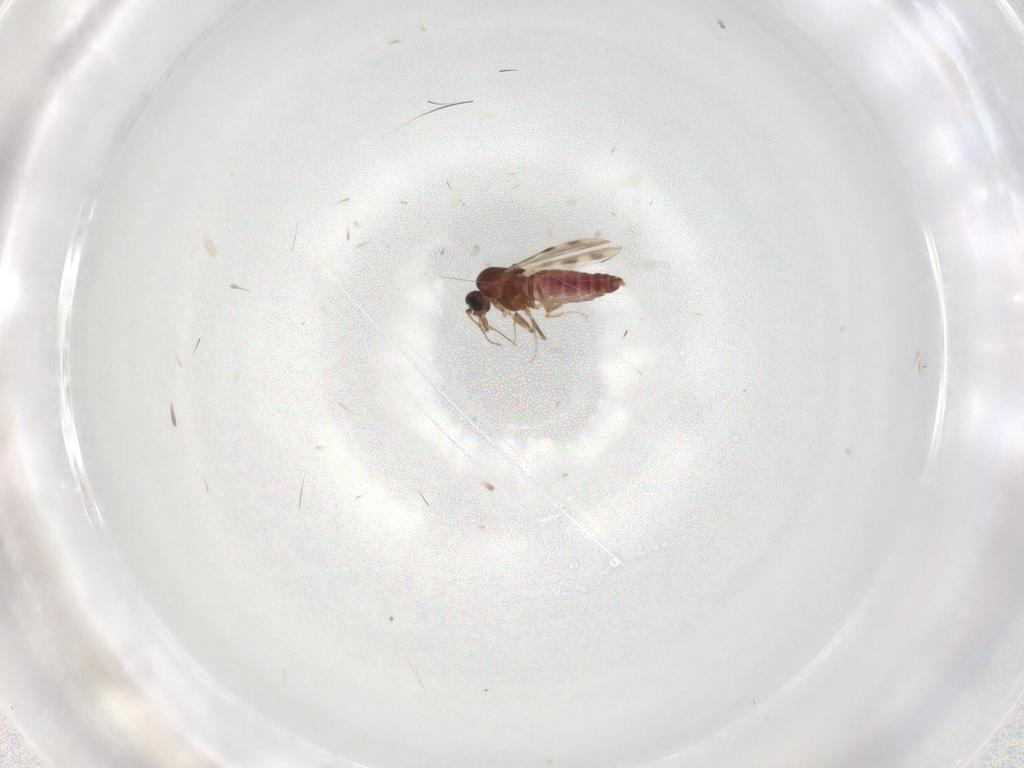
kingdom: Animalia
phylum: Arthropoda
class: Insecta
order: Diptera
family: Ceratopogonidae
